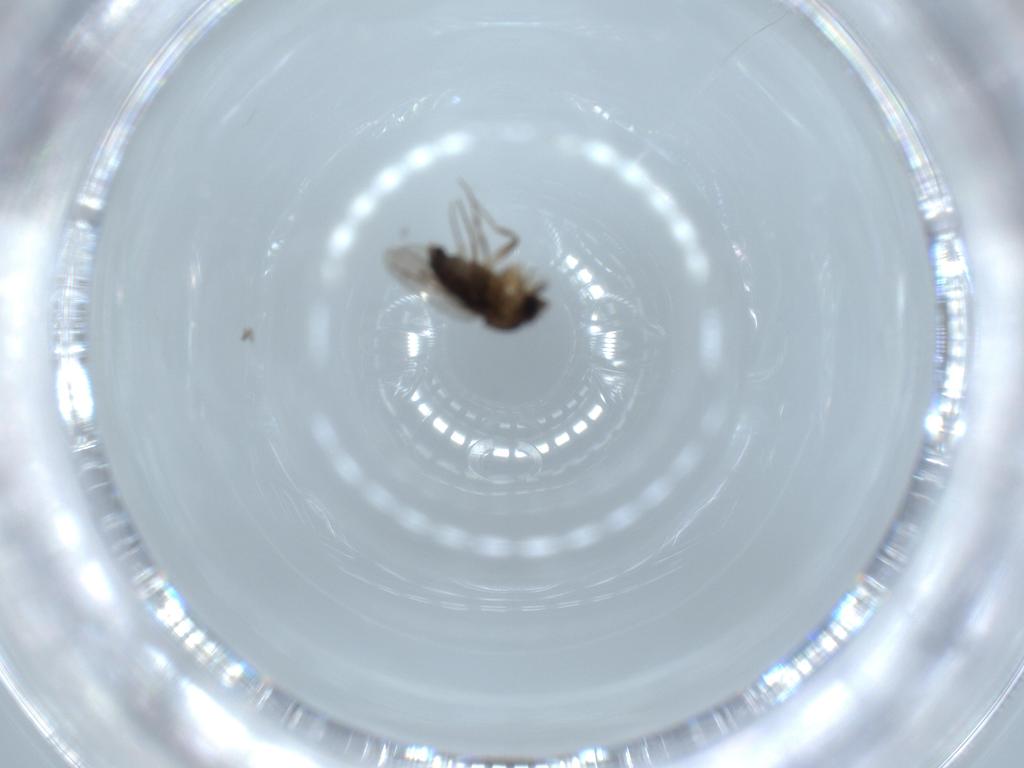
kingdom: Animalia
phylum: Arthropoda
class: Insecta
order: Diptera
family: Phoridae
